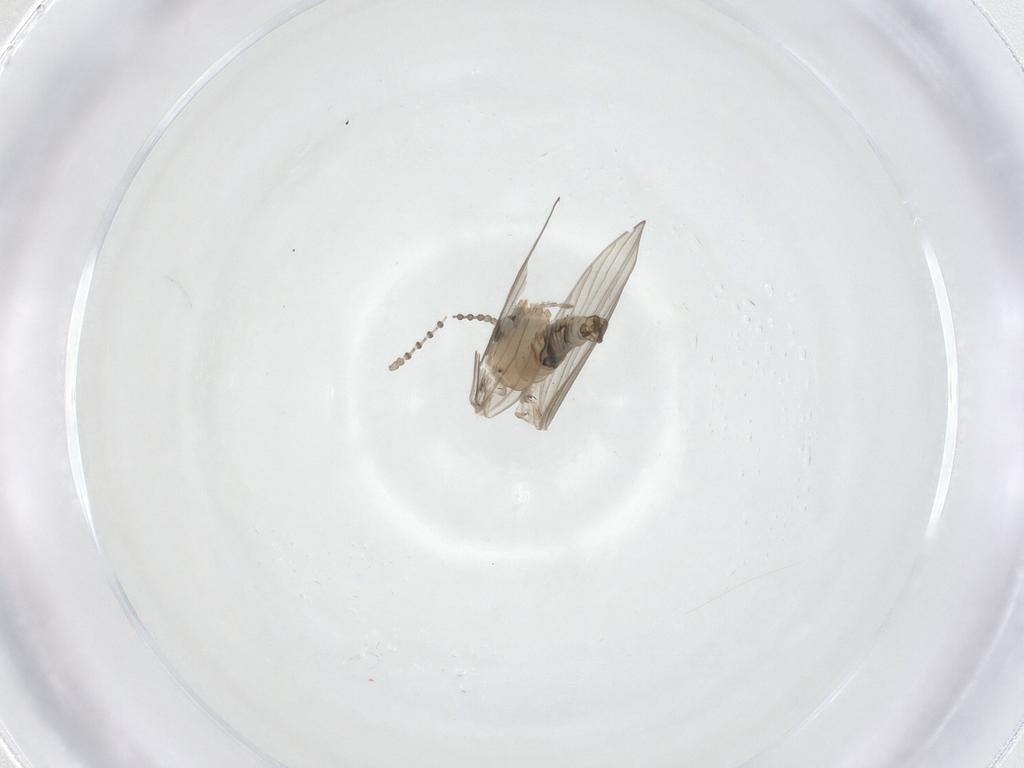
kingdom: Animalia
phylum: Arthropoda
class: Insecta
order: Diptera
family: Psychodidae
